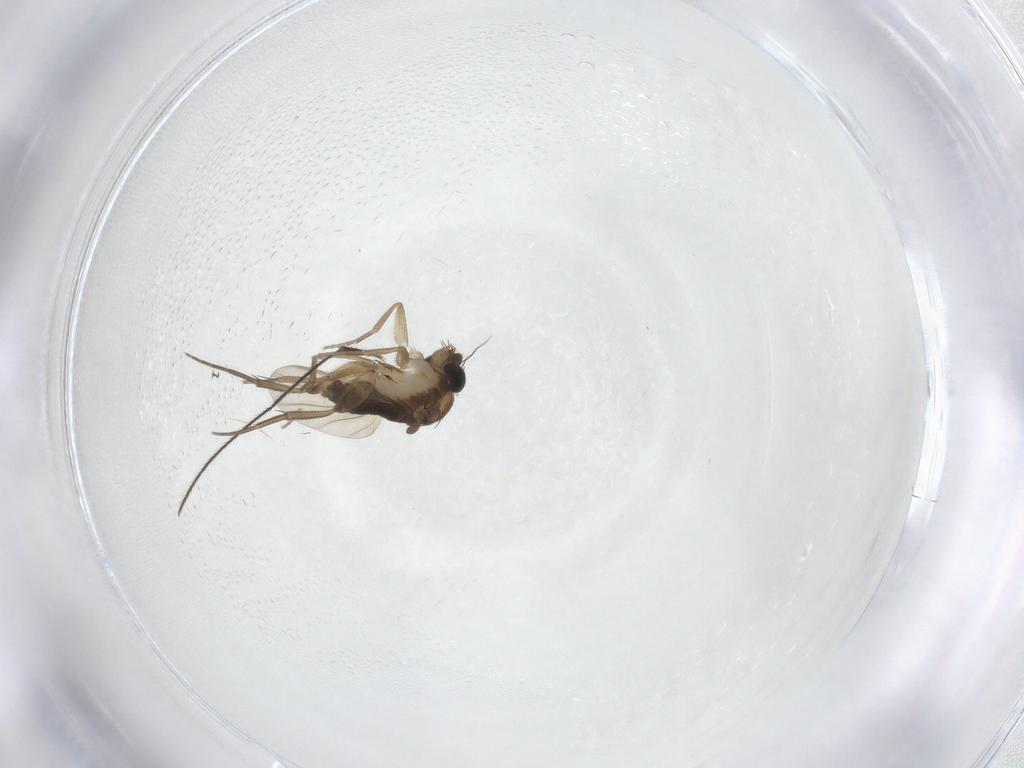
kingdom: Animalia
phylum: Arthropoda
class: Insecta
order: Diptera
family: Phoridae
